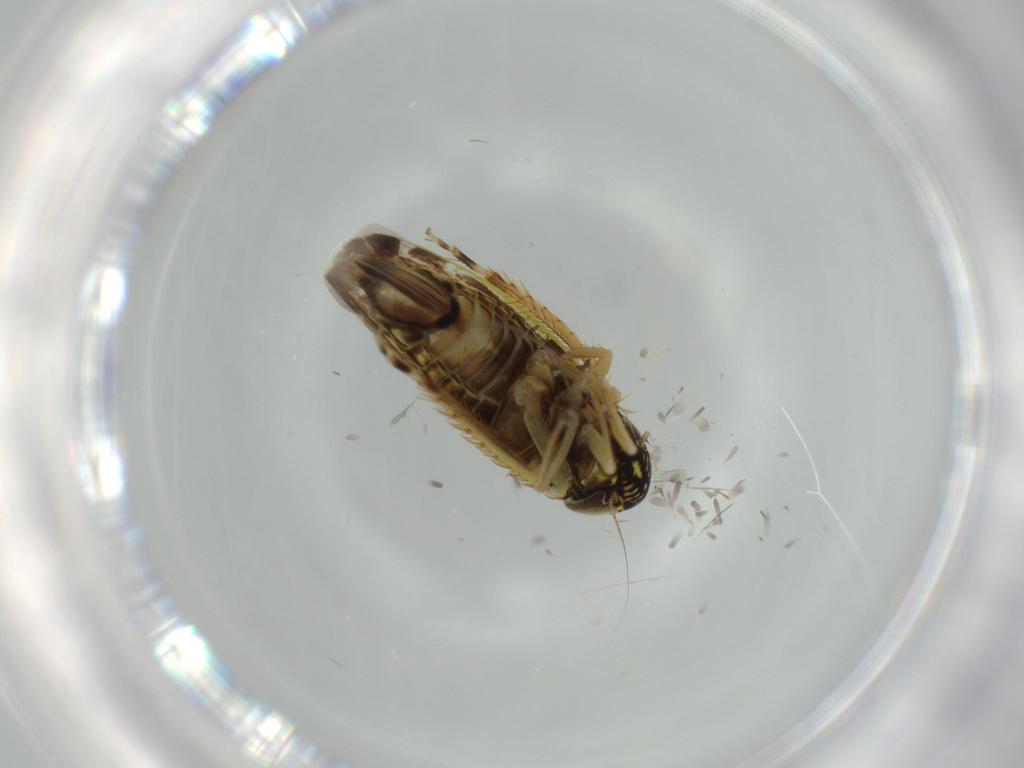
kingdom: Animalia
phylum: Arthropoda
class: Insecta
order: Hemiptera
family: Cicadellidae
